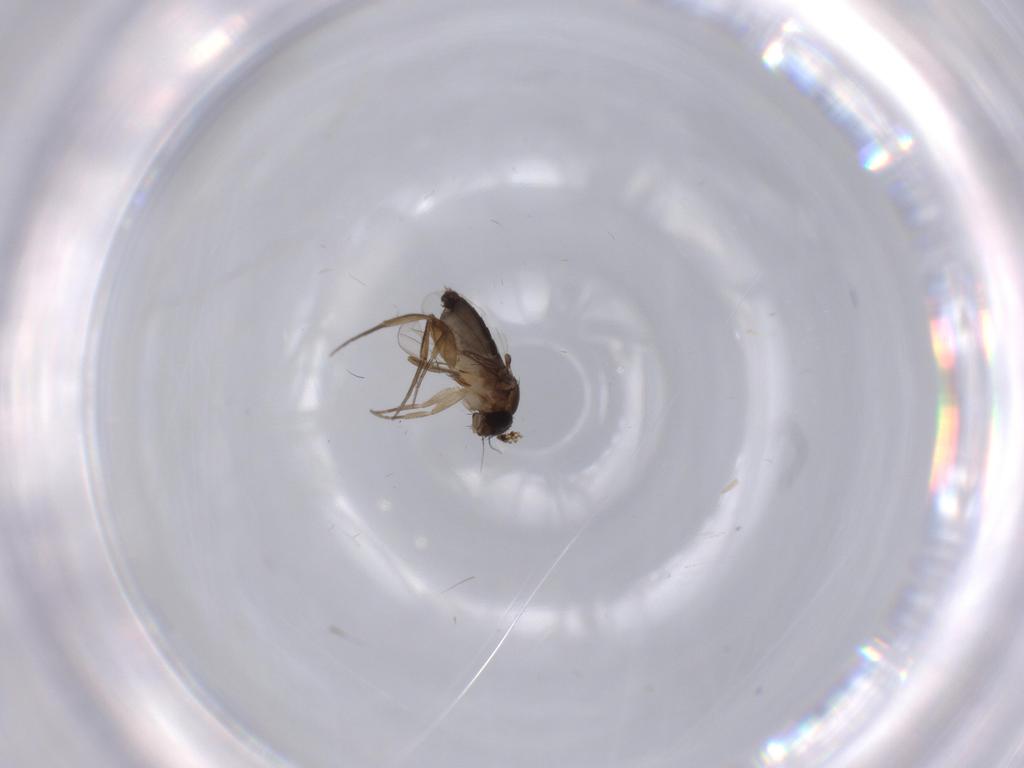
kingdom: Animalia
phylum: Arthropoda
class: Insecta
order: Diptera
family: Phoridae
